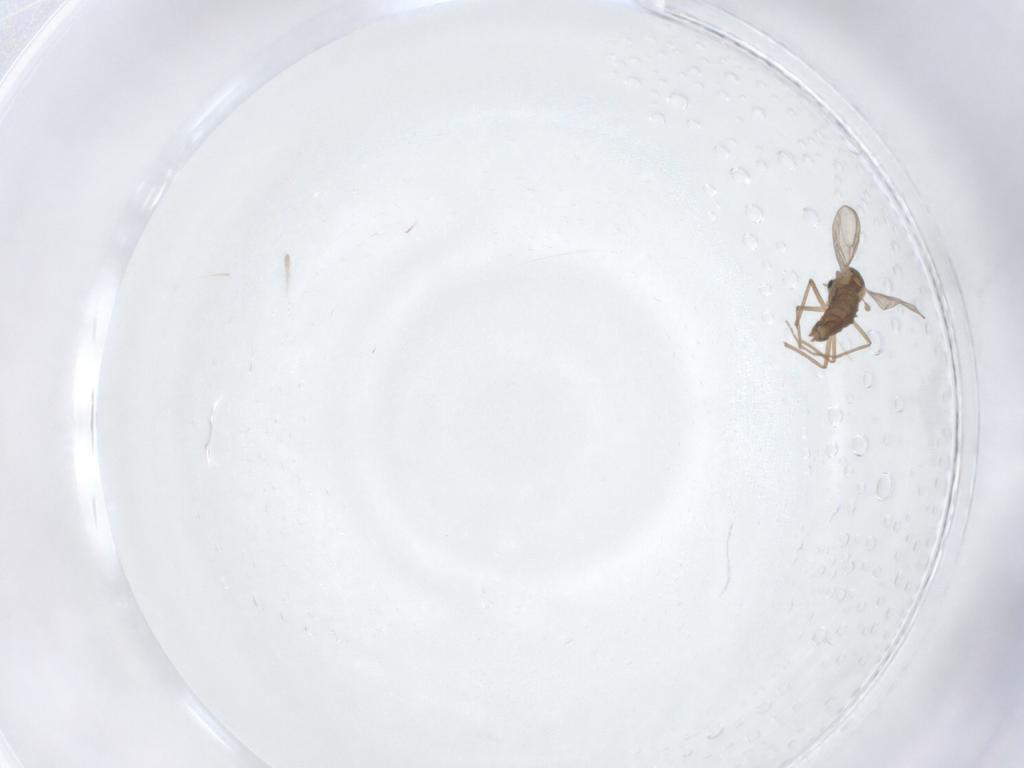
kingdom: Animalia
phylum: Arthropoda
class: Insecta
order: Diptera
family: Chironomidae
